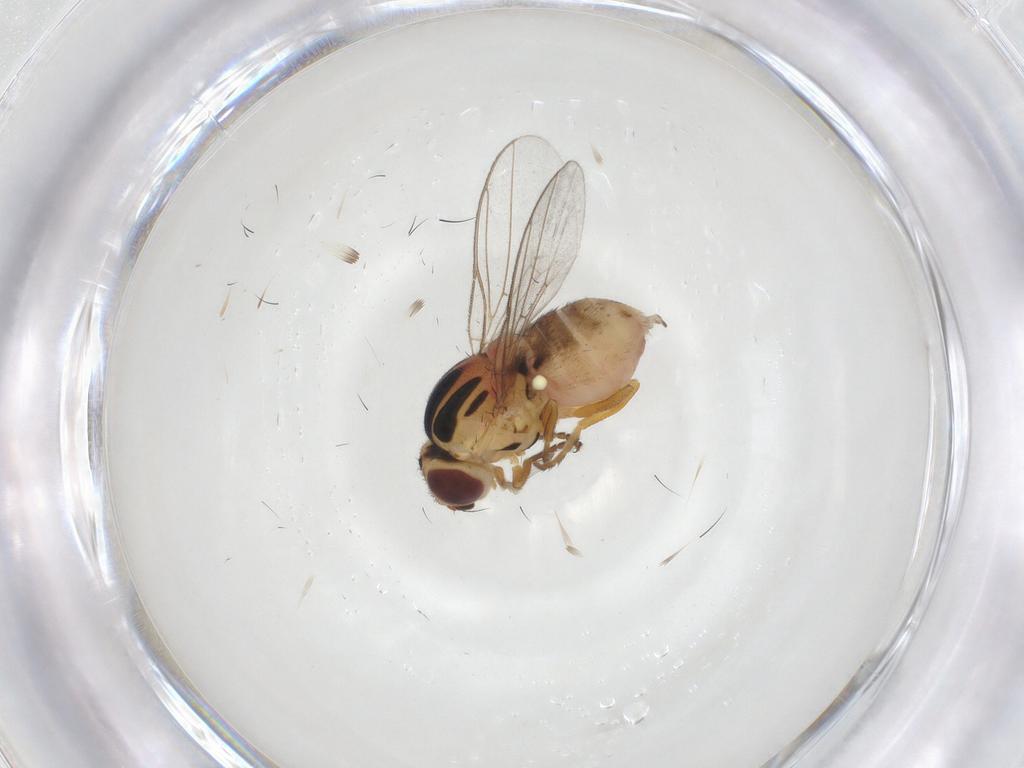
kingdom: Animalia
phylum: Arthropoda
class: Insecta
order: Diptera
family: Chloropidae
